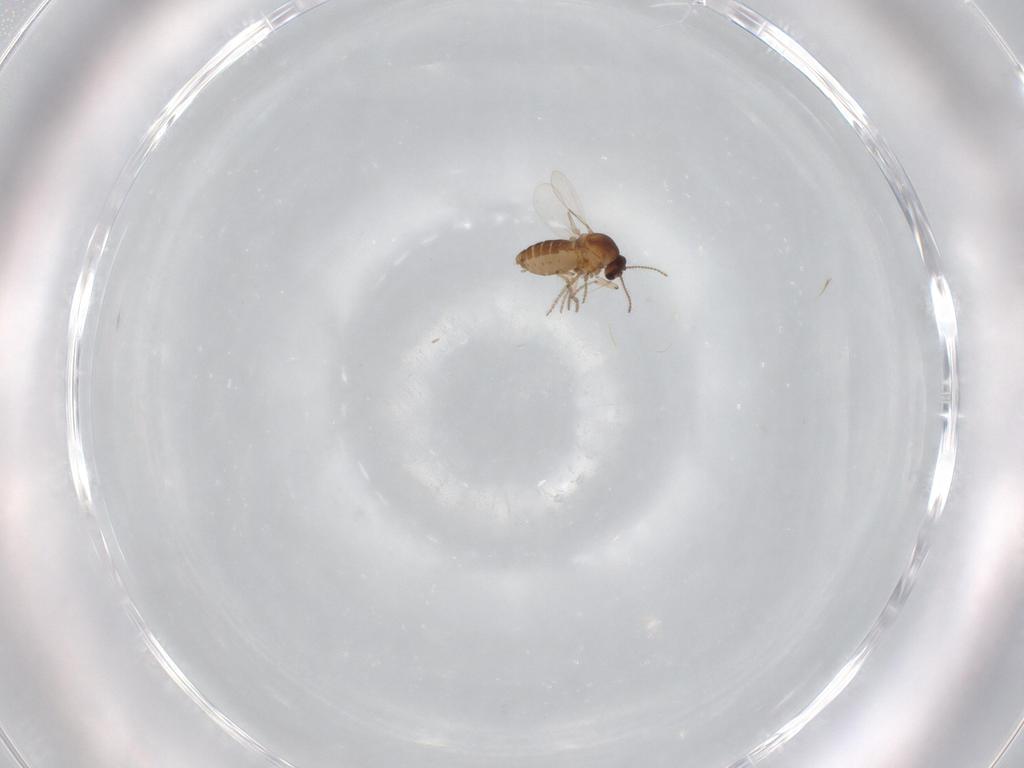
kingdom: Animalia
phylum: Arthropoda
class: Insecta
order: Diptera
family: Ceratopogonidae
